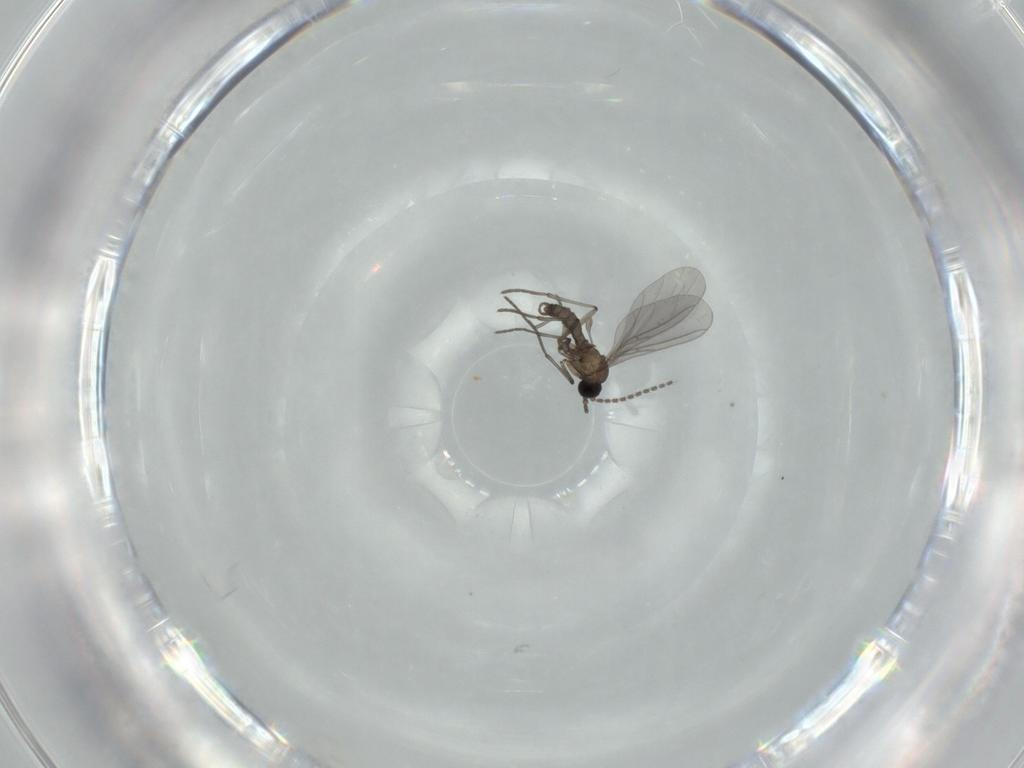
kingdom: Animalia
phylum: Arthropoda
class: Insecta
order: Diptera
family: Sciaridae
